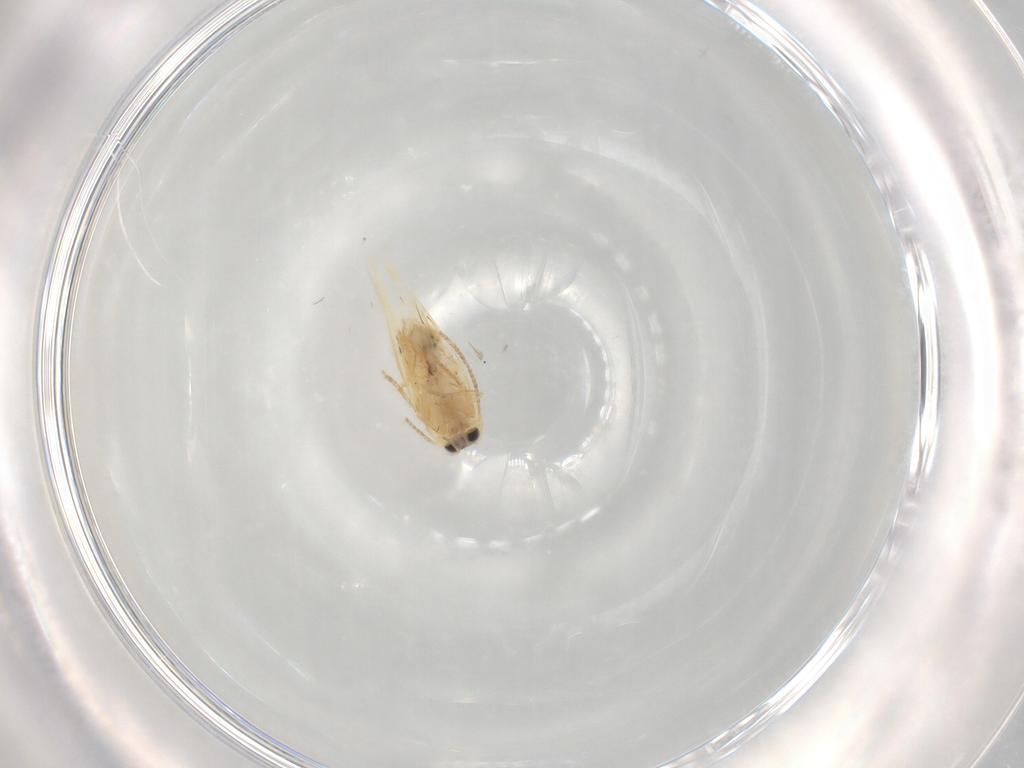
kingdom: Animalia
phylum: Arthropoda
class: Insecta
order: Lepidoptera
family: Nepticulidae
